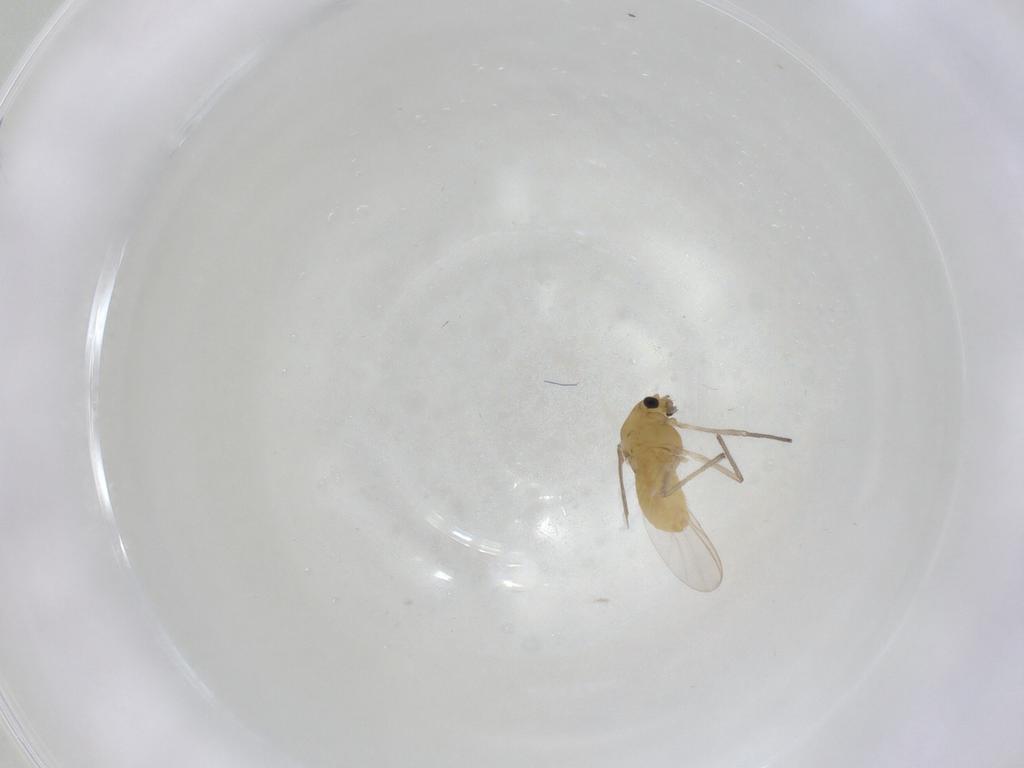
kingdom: Animalia
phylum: Arthropoda
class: Insecta
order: Diptera
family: Chironomidae
